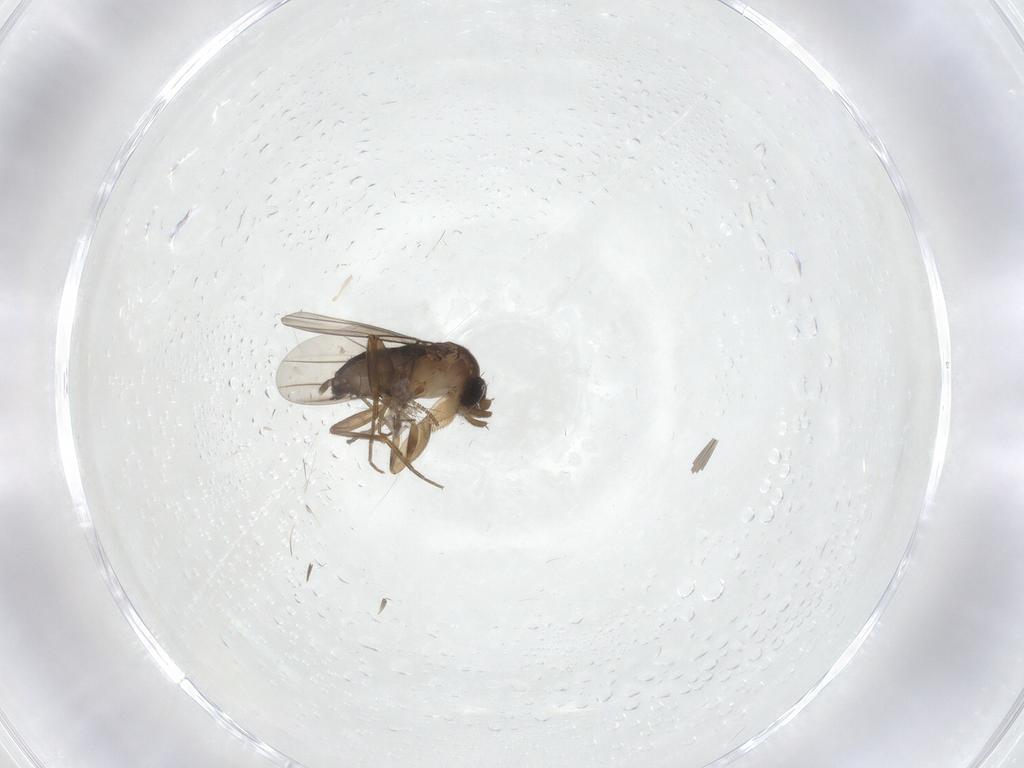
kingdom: Animalia
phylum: Arthropoda
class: Insecta
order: Diptera
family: Phoridae
